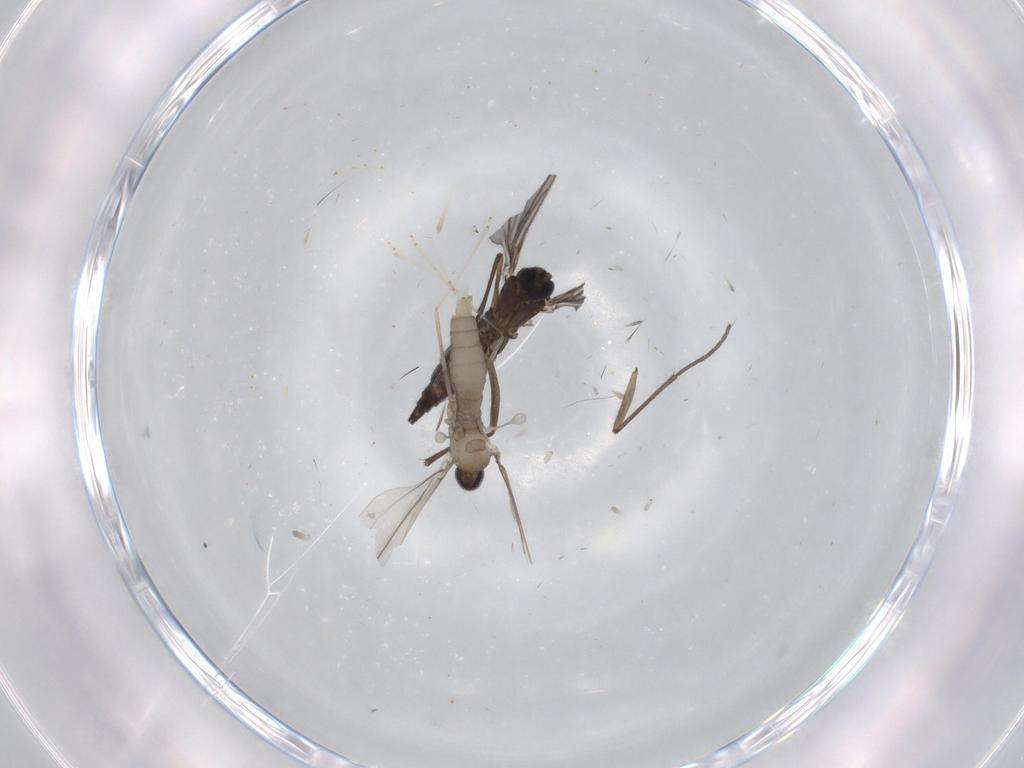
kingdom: Animalia
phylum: Arthropoda
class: Insecta
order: Diptera
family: Sciaridae
